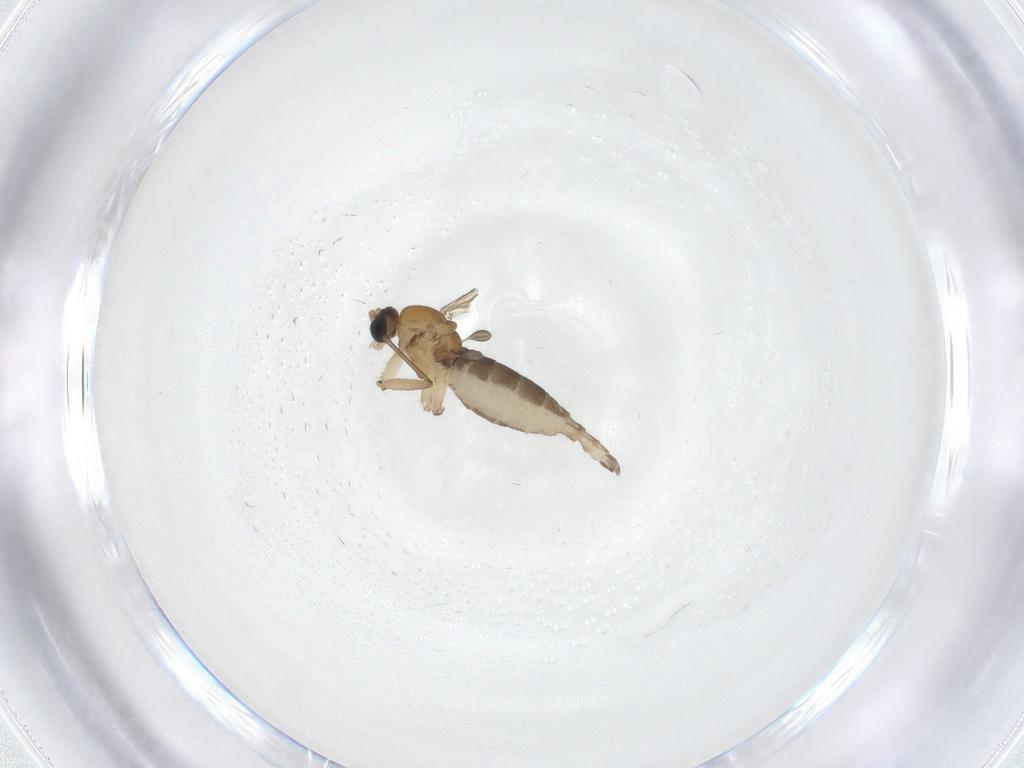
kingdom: Animalia
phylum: Arthropoda
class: Insecta
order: Diptera
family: Sciaridae
